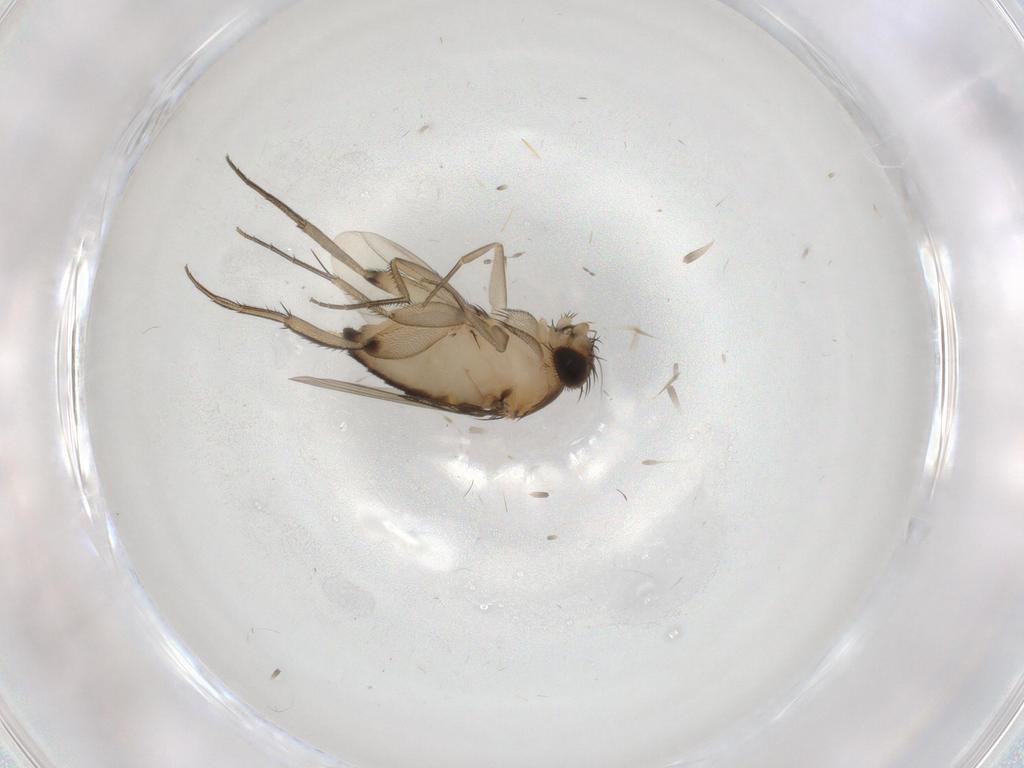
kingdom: Animalia
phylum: Arthropoda
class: Insecta
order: Diptera
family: Phoridae
